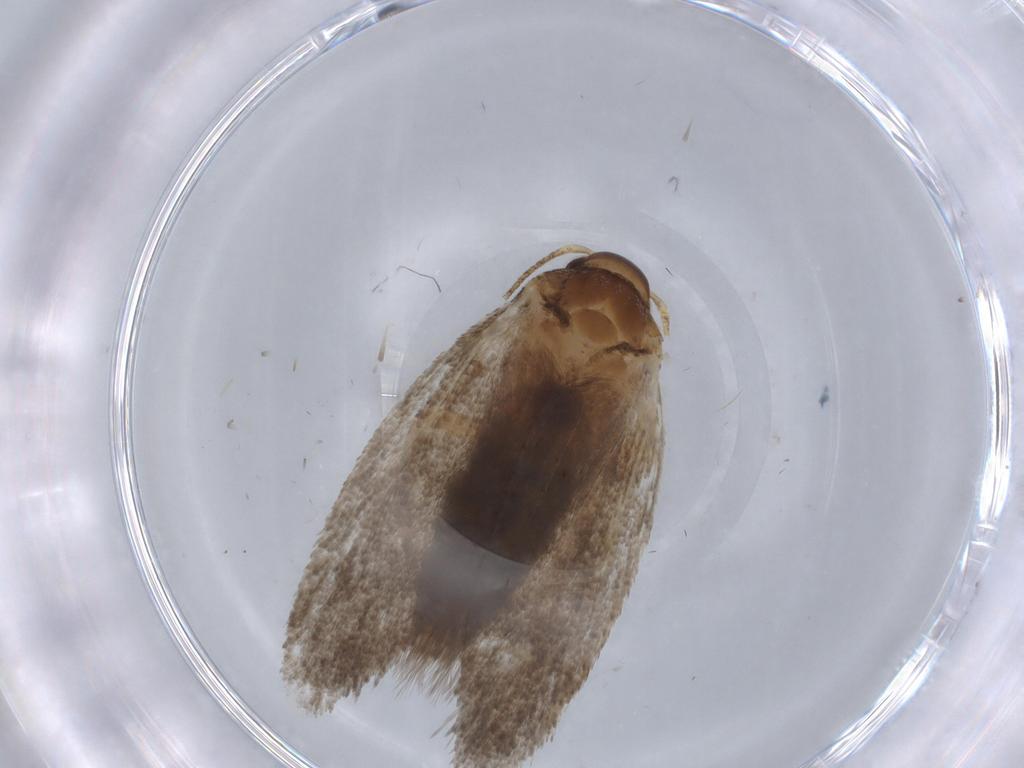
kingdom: Animalia
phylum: Arthropoda
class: Insecta
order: Lepidoptera
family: Oecophoridae
